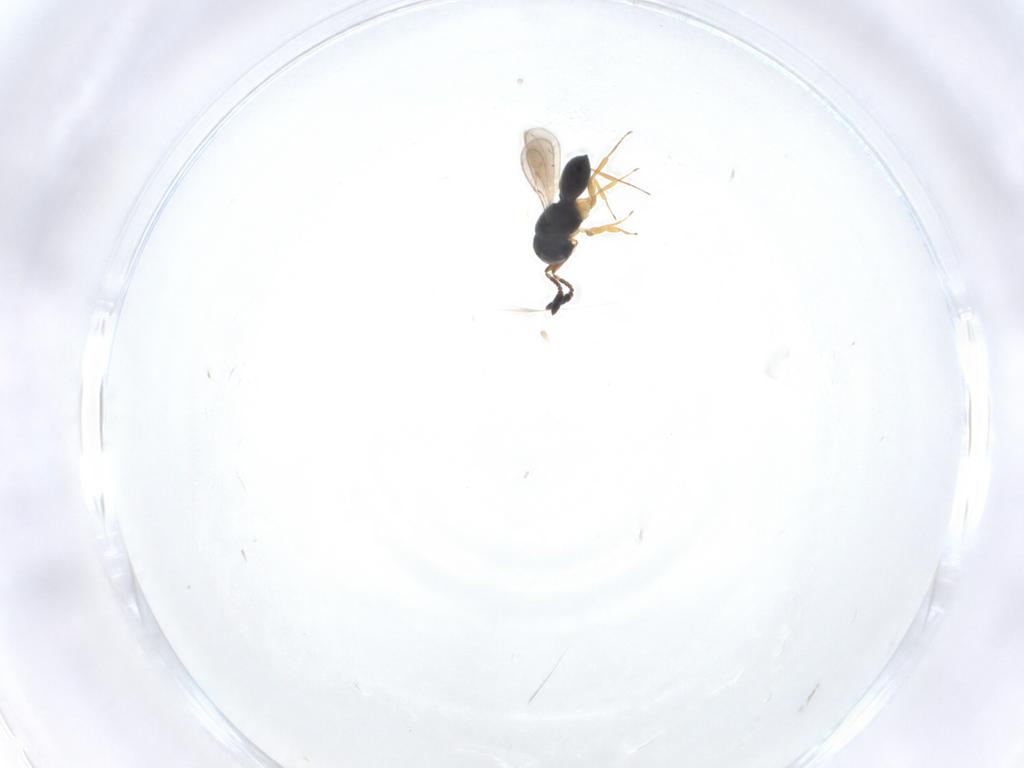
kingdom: Animalia
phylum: Arthropoda
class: Insecta
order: Hymenoptera
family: Scelionidae
